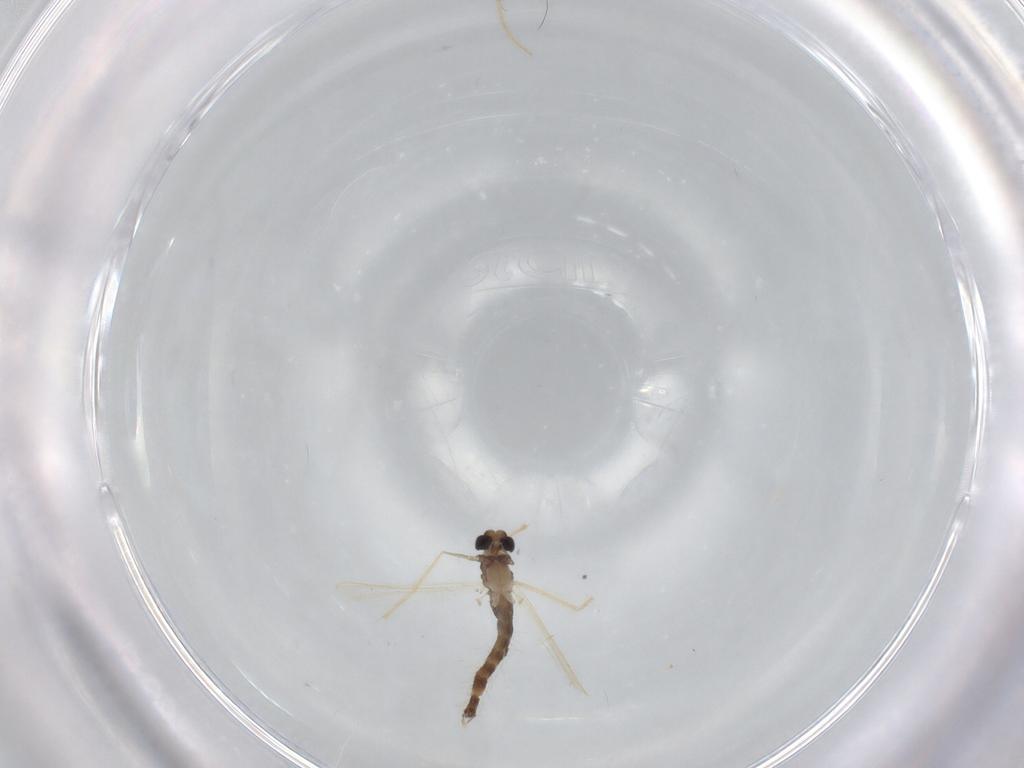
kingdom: Animalia
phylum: Arthropoda
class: Insecta
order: Diptera
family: Chironomidae
